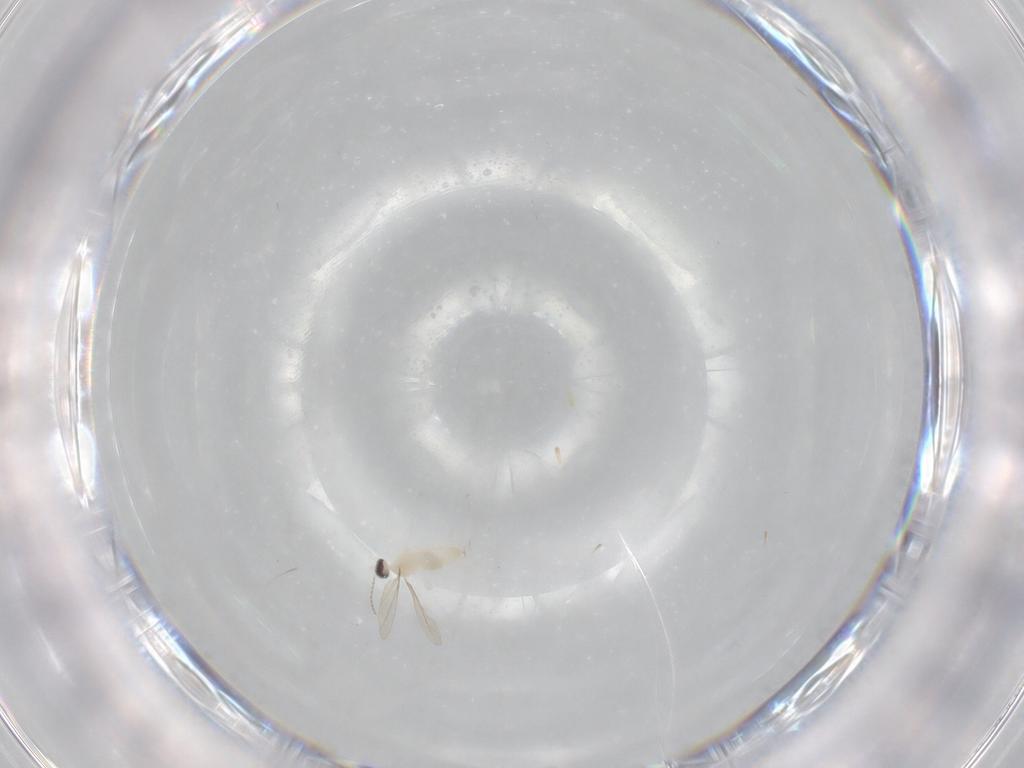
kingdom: Animalia
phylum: Arthropoda
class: Insecta
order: Diptera
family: Cecidomyiidae
